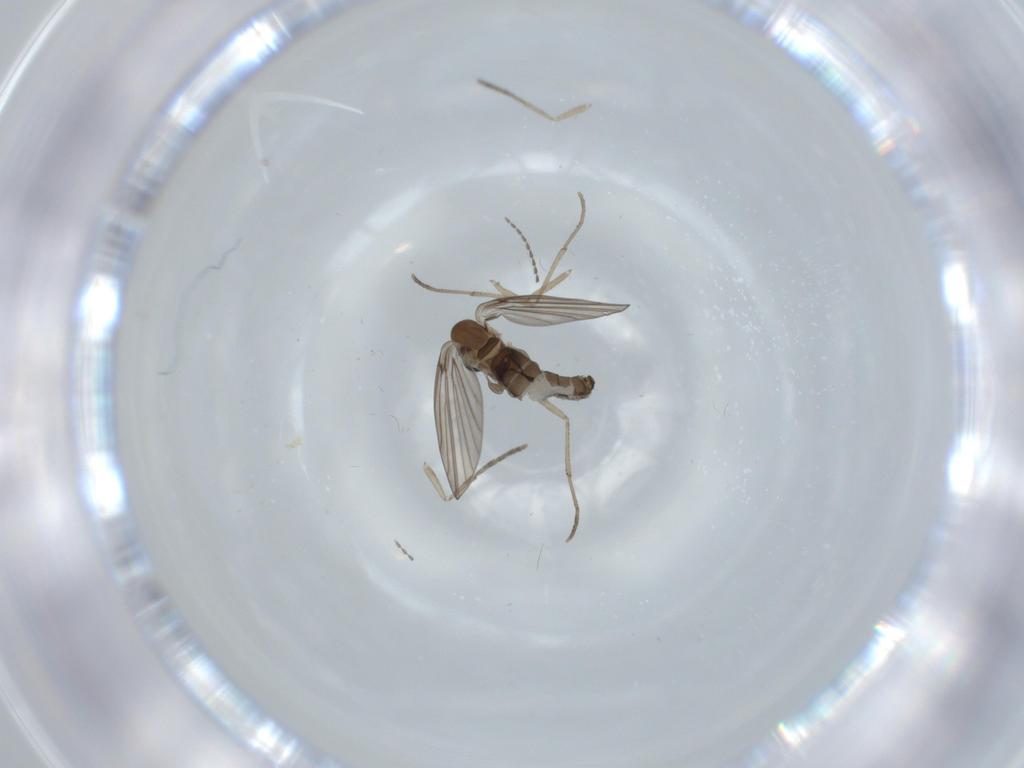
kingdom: Animalia
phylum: Arthropoda
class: Insecta
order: Diptera
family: Psychodidae
